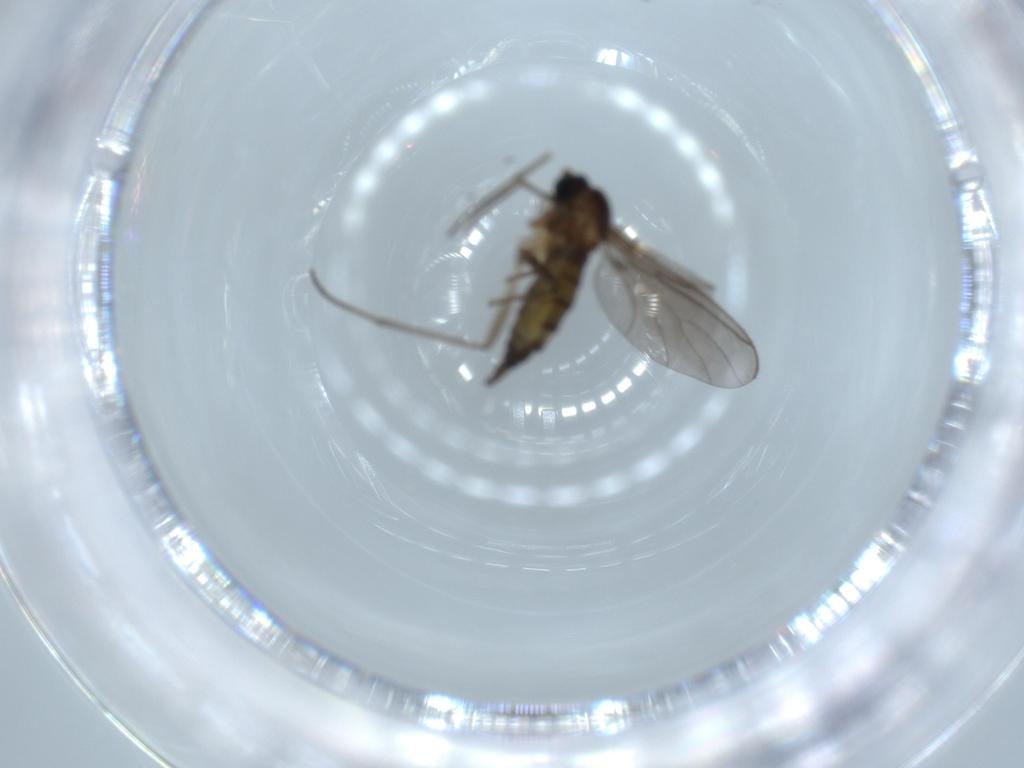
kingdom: Animalia
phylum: Arthropoda
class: Insecta
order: Diptera
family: Sciaridae
